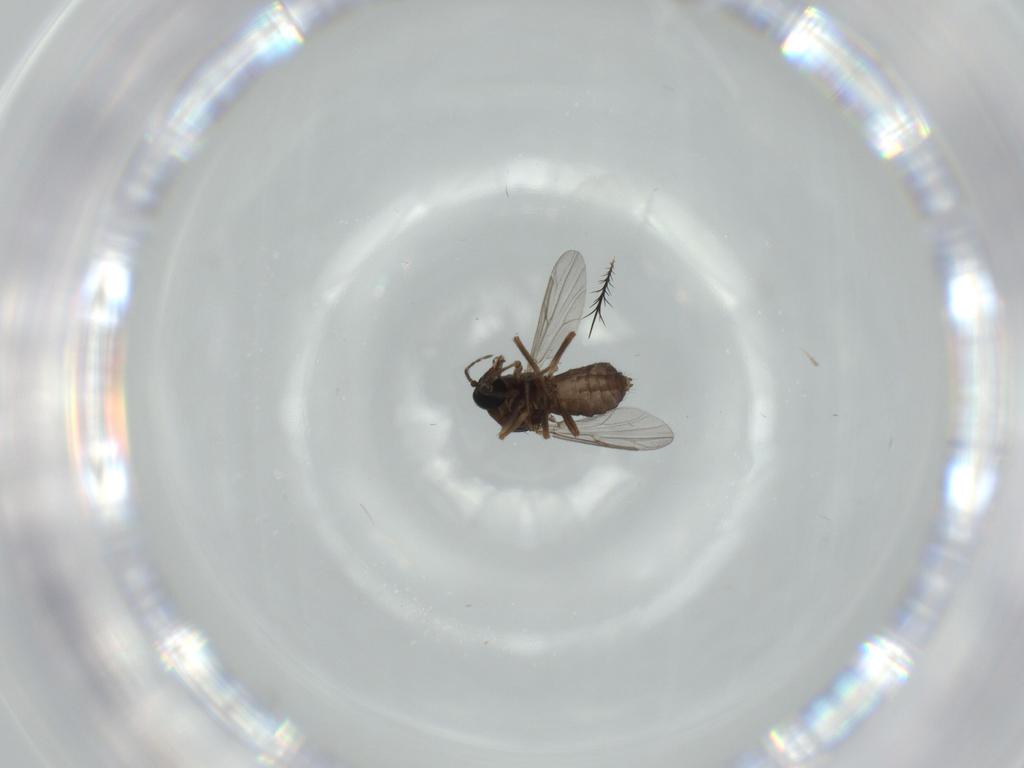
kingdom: Animalia
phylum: Arthropoda
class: Insecta
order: Diptera
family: Ceratopogonidae
